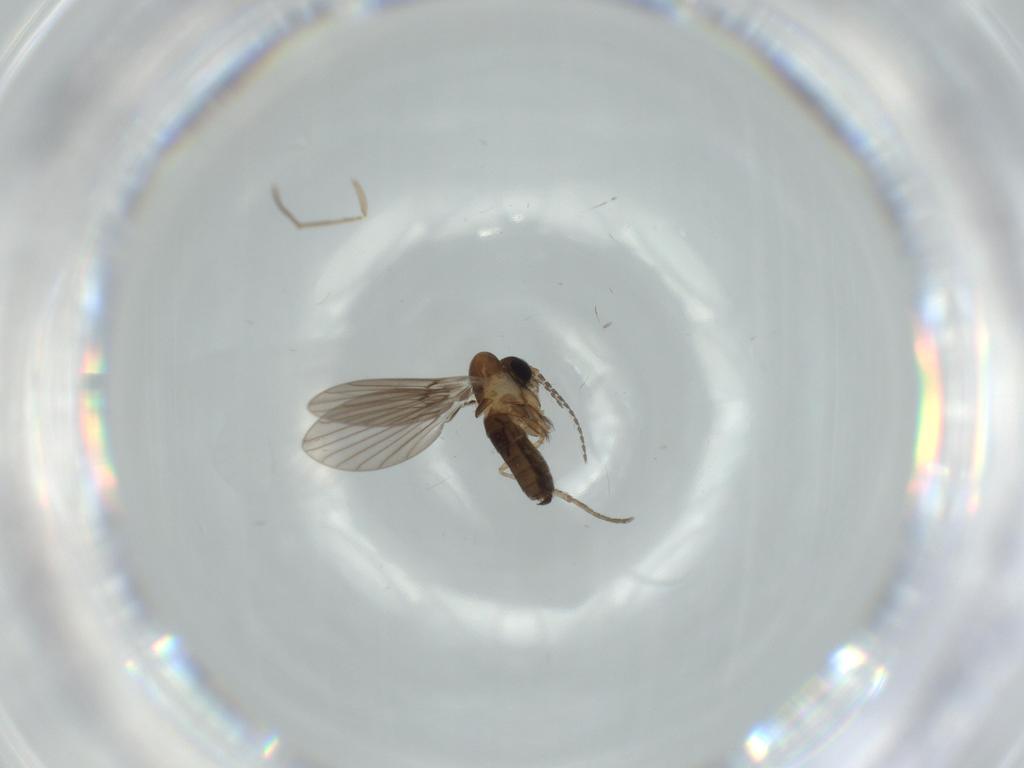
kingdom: Animalia
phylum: Arthropoda
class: Insecta
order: Diptera
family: Psychodidae
